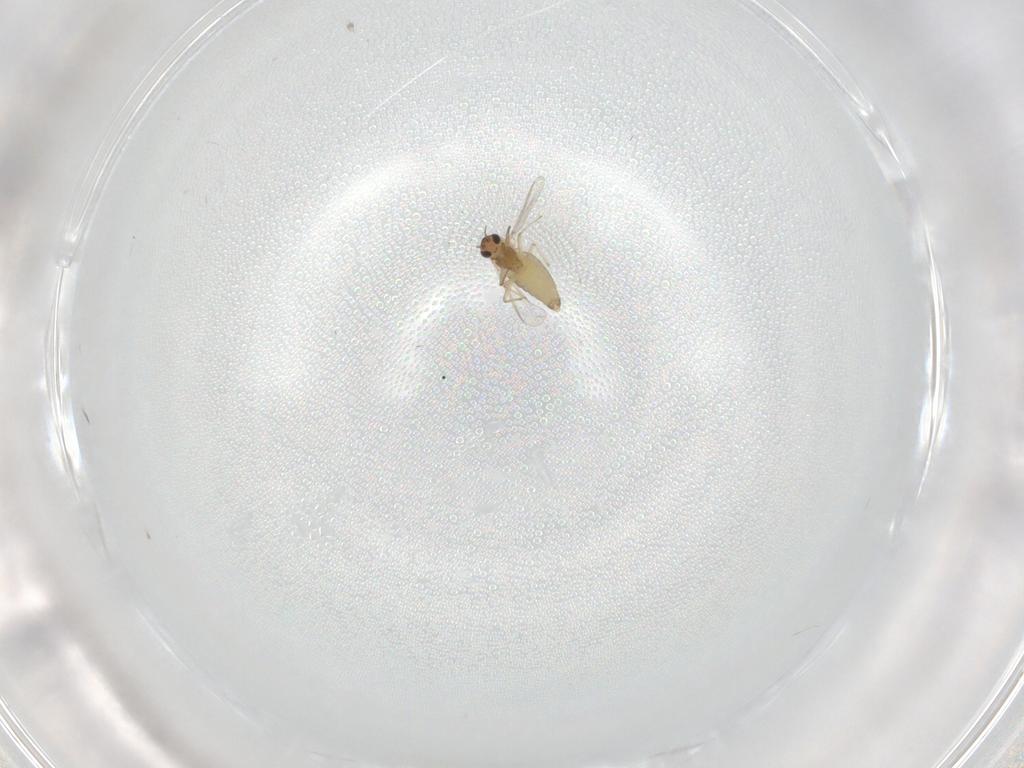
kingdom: Animalia
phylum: Arthropoda
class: Insecta
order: Diptera
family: Chironomidae
